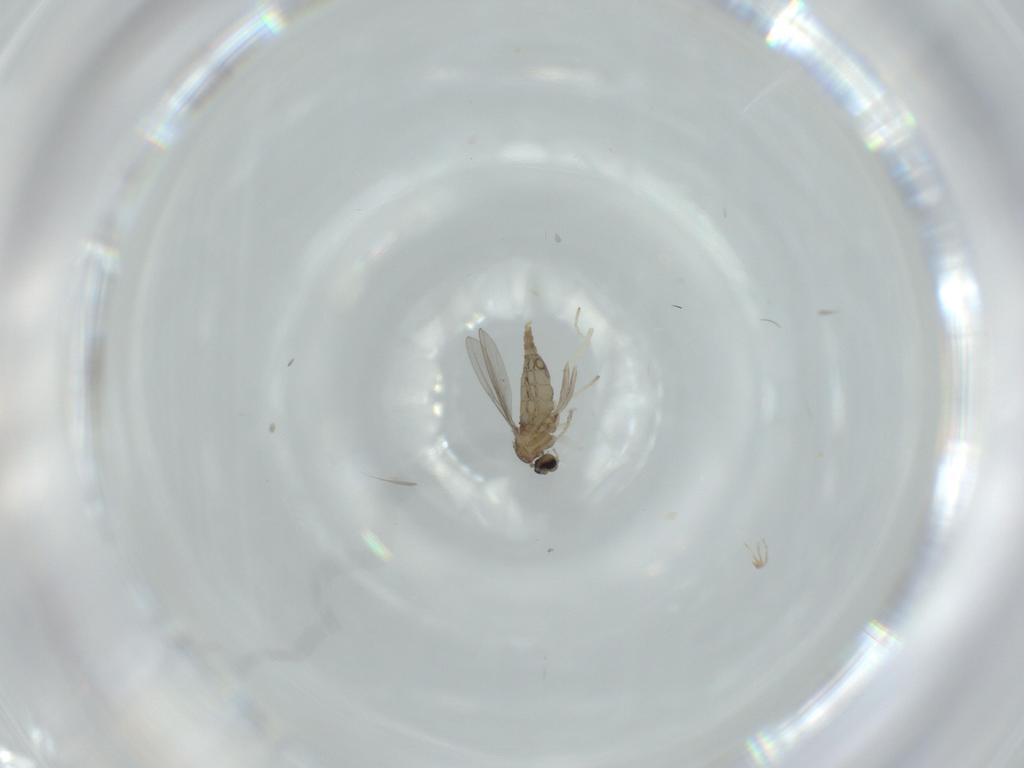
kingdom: Animalia
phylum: Arthropoda
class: Insecta
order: Diptera
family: Cecidomyiidae
